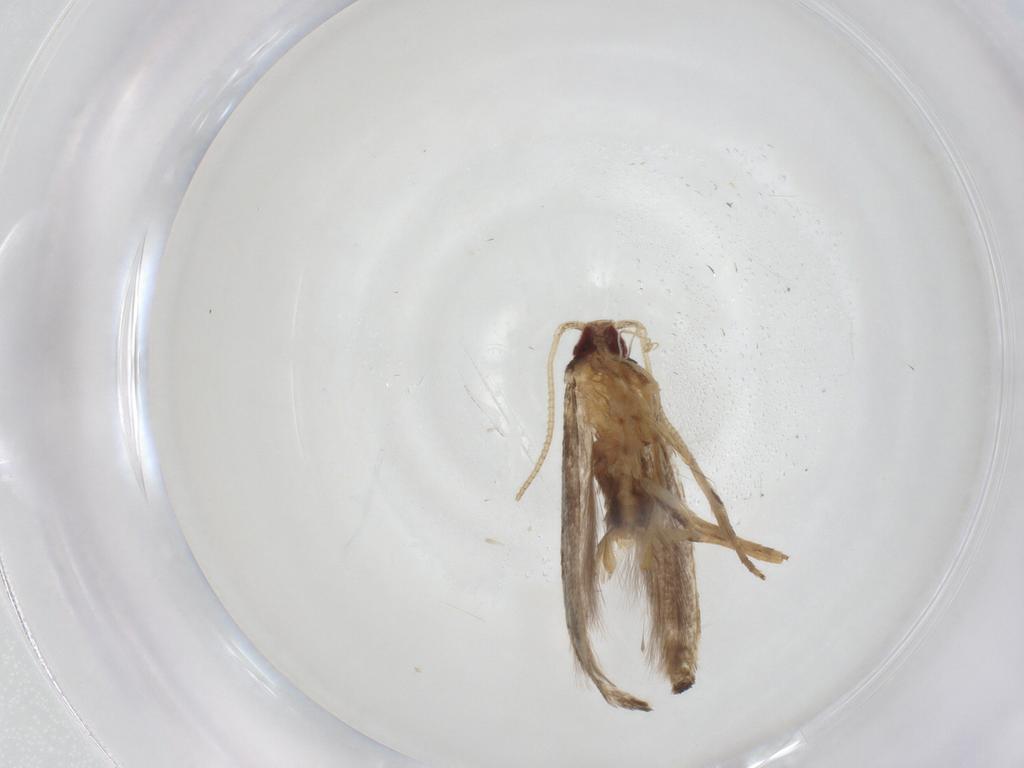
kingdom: Animalia
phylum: Arthropoda
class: Insecta
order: Lepidoptera
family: Cosmopterigidae
